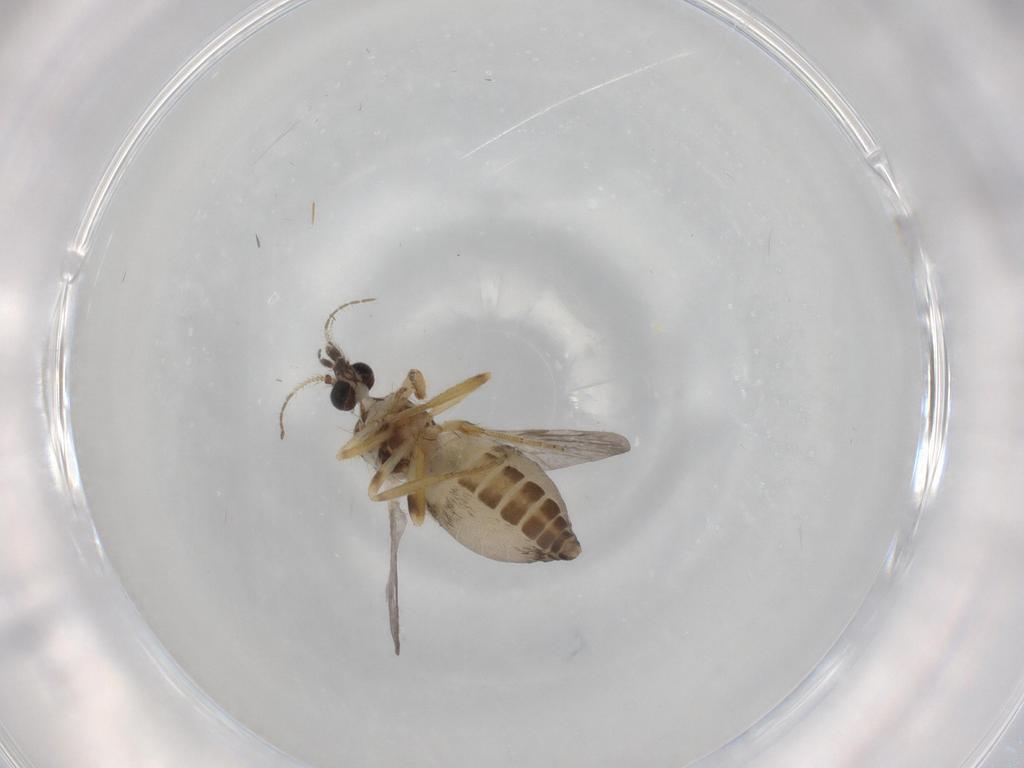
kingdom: Animalia
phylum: Arthropoda
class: Insecta
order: Diptera
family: Ceratopogonidae
